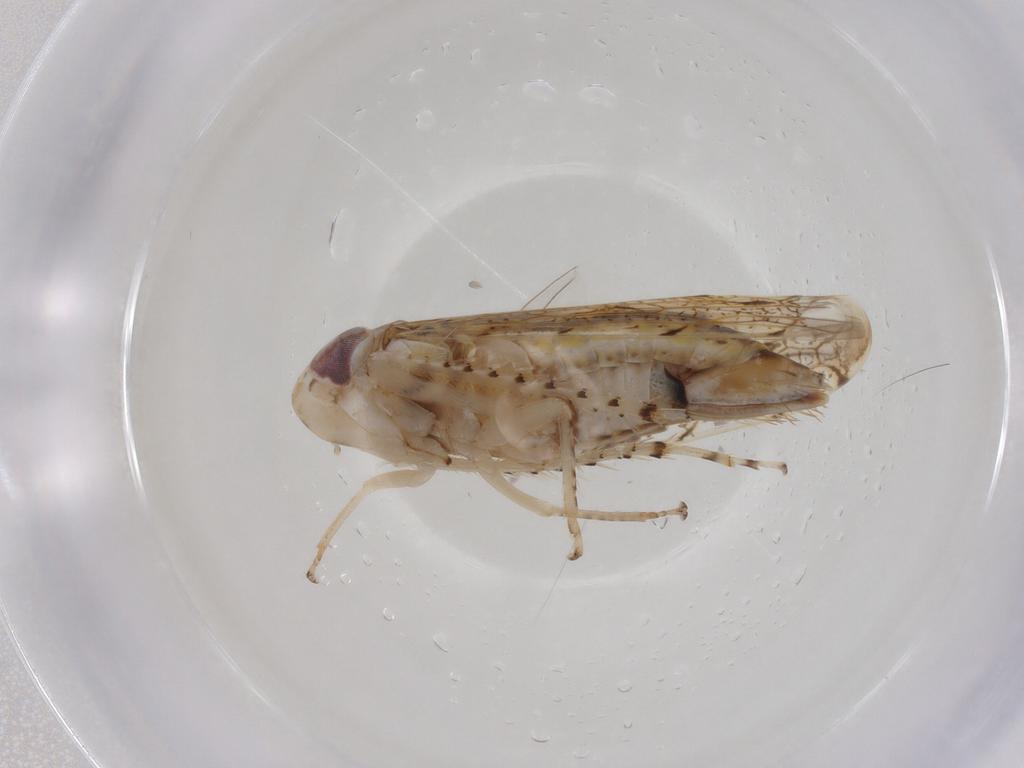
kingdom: Animalia
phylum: Arthropoda
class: Insecta
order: Hemiptera
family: Cicadellidae
